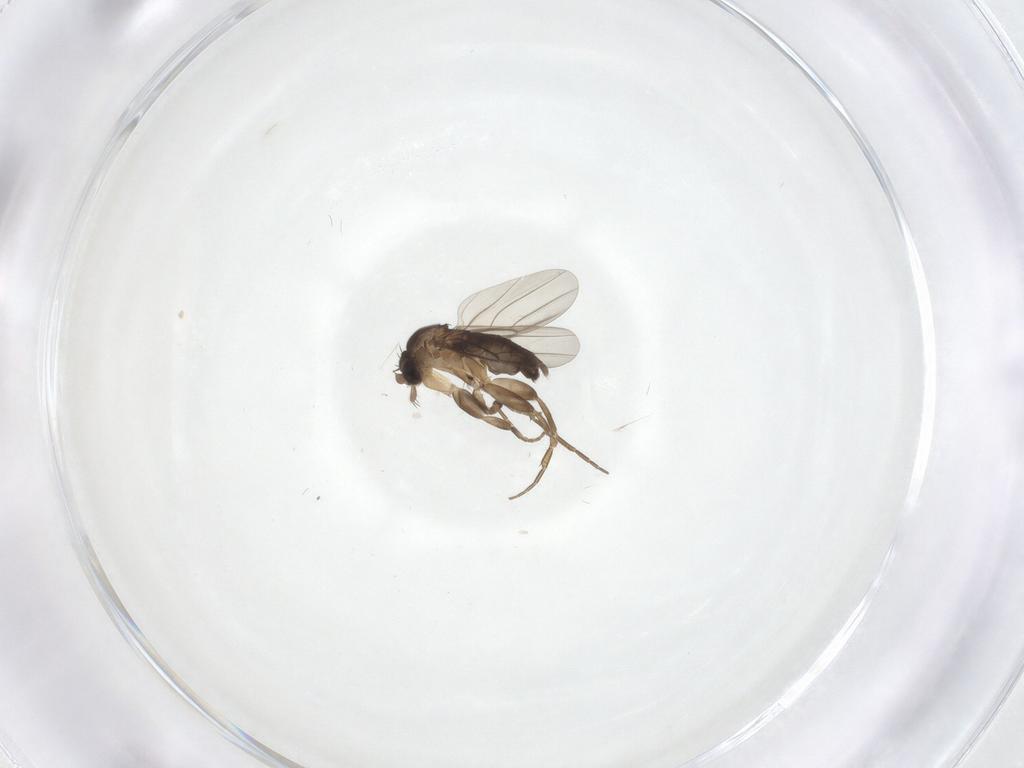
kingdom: Animalia
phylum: Arthropoda
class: Insecta
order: Diptera
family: Phoridae
